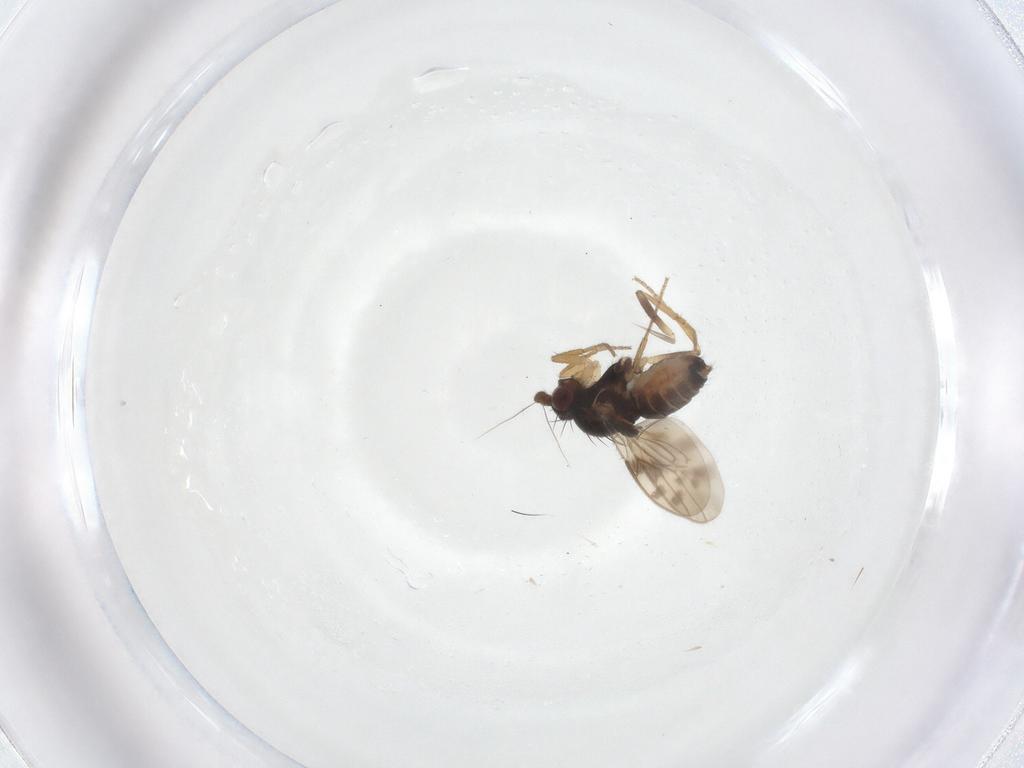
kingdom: Animalia
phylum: Arthropoda
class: Insecta
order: Diptera
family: Sphaeroceridae
